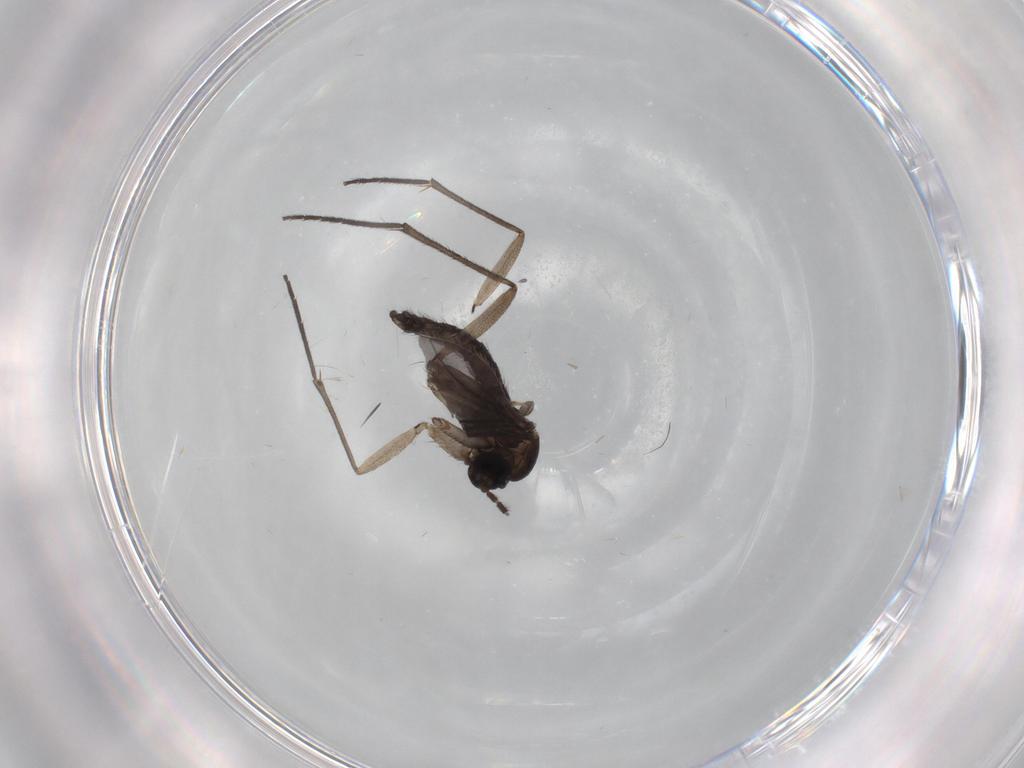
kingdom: Animalia
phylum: Arthropoda
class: Insecta
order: Diptera
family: Sciaridae
